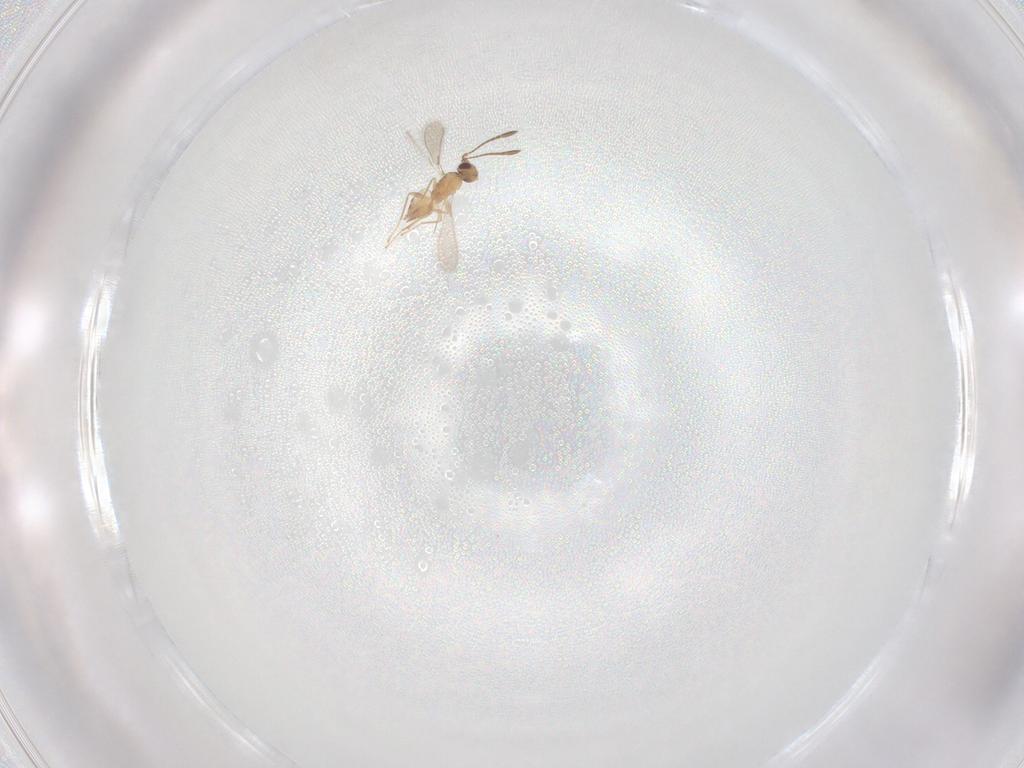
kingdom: Animalia
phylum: Arthropoda
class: Insecta
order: Hymenoptera
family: Mymaridae
